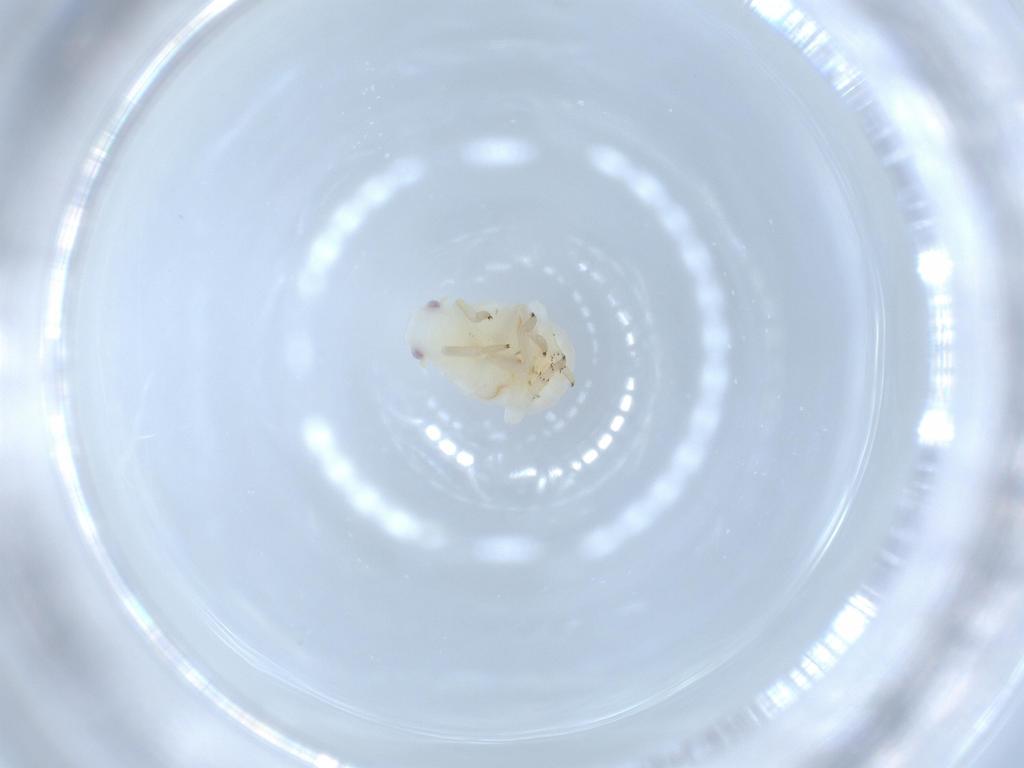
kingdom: Animalia
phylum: Arthropoda
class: Insecta
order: Hemiptera
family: Flatidae
